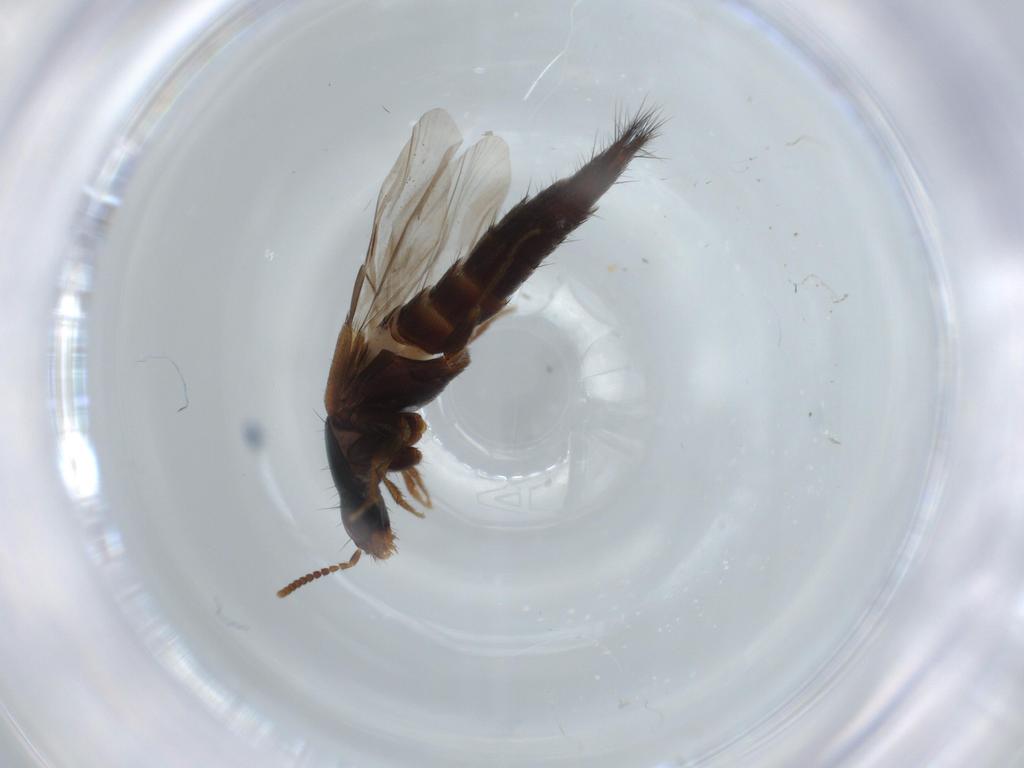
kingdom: Animalia
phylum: Arthropoda
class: Insecta
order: Coleoptera
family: Staphylinidae
